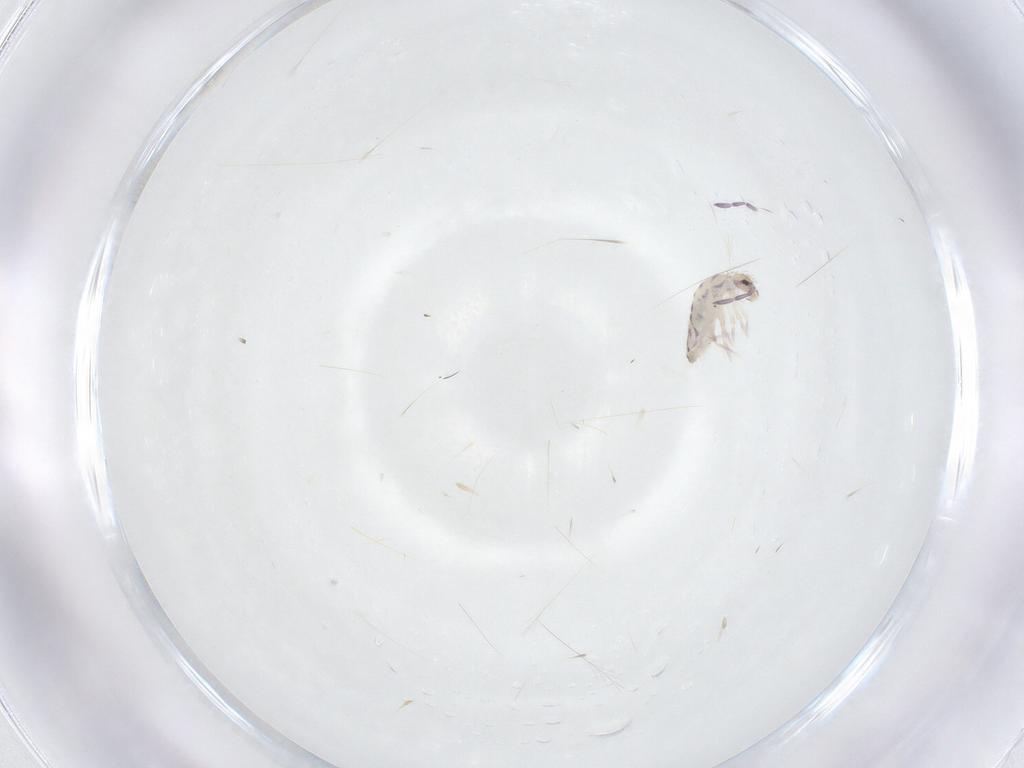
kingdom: Animalia
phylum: Arthropoda
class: Collembola
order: Entomobryomorpha
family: Entomobryidae
